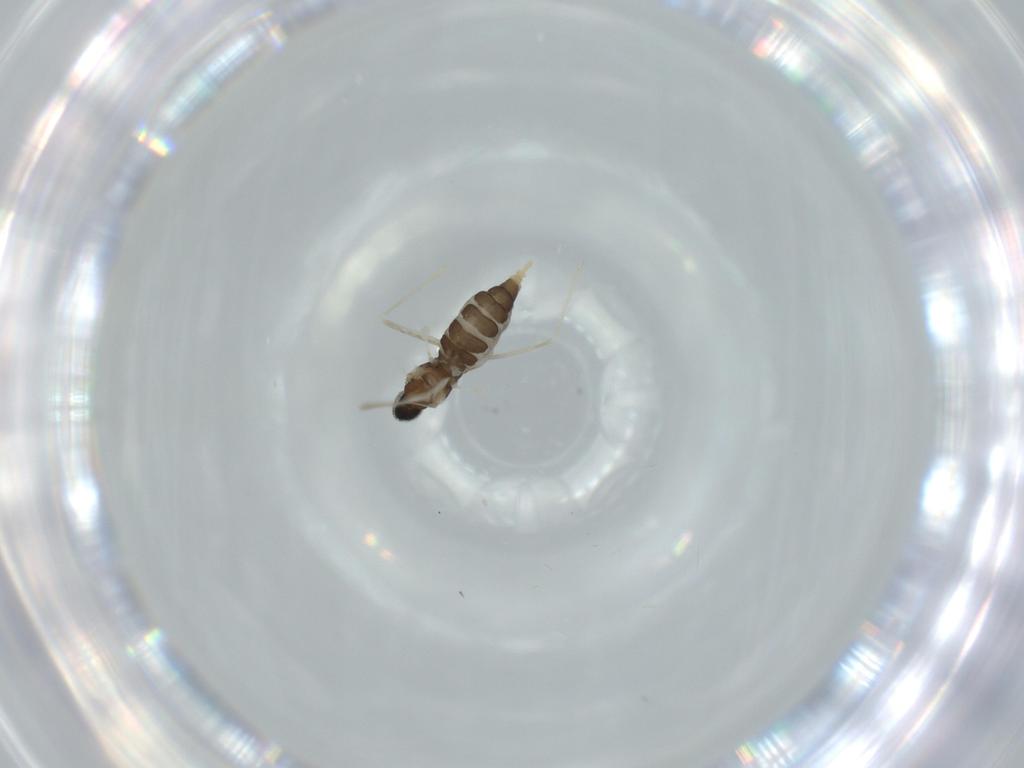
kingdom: Animalia
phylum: Arthropoda
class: Insecta
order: Diptera
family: Cecidomyiidae
